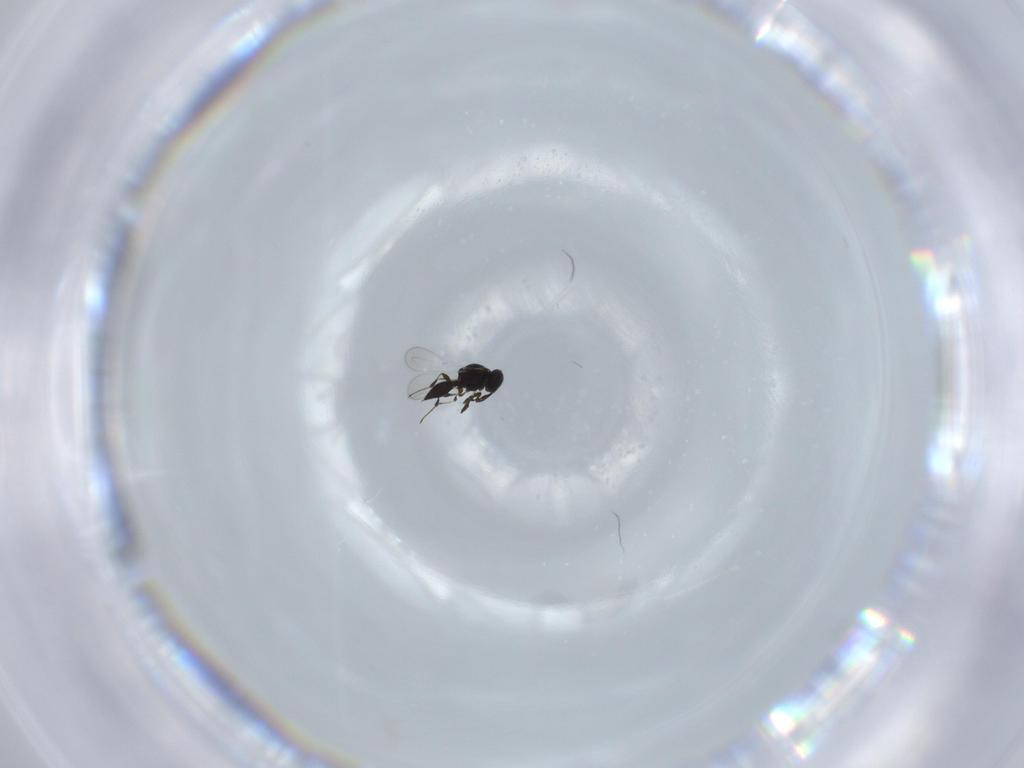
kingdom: Animalia
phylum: Arthropoda
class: Insecta
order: Hymenoptera
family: Platygastridae
